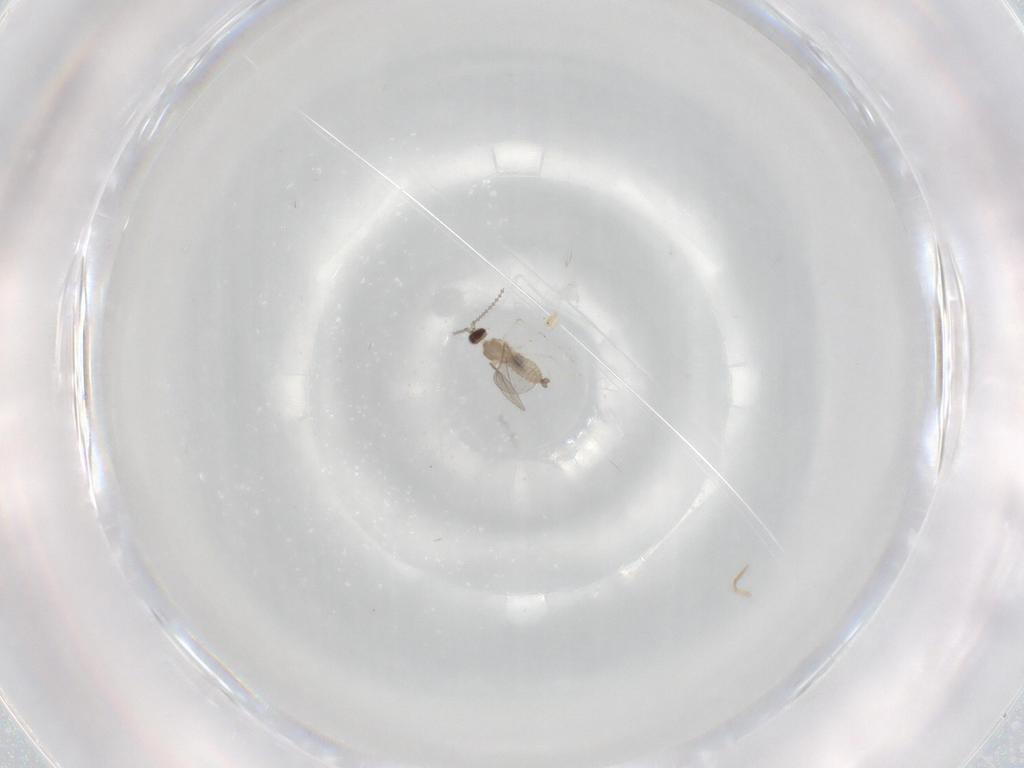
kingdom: Animalia
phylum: Arthropoda
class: Insecta
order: Diptera
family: Cecidomyiidae
